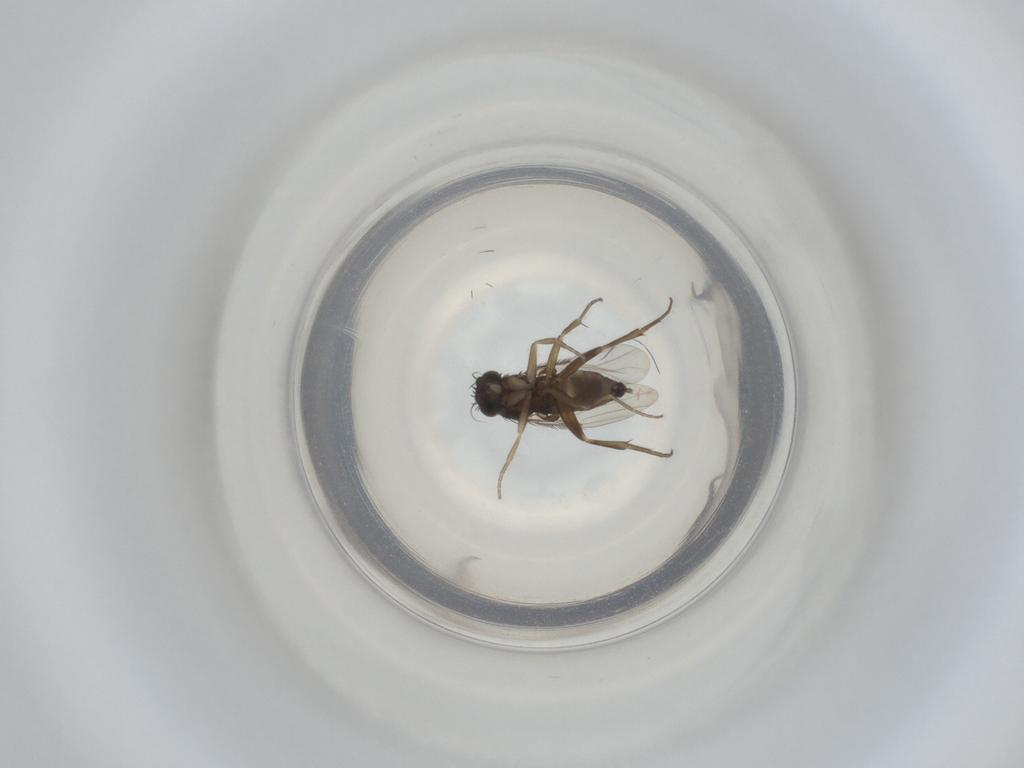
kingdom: Animalia
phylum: Arthropoda
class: Insecta
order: Diptera
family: Phoridae
